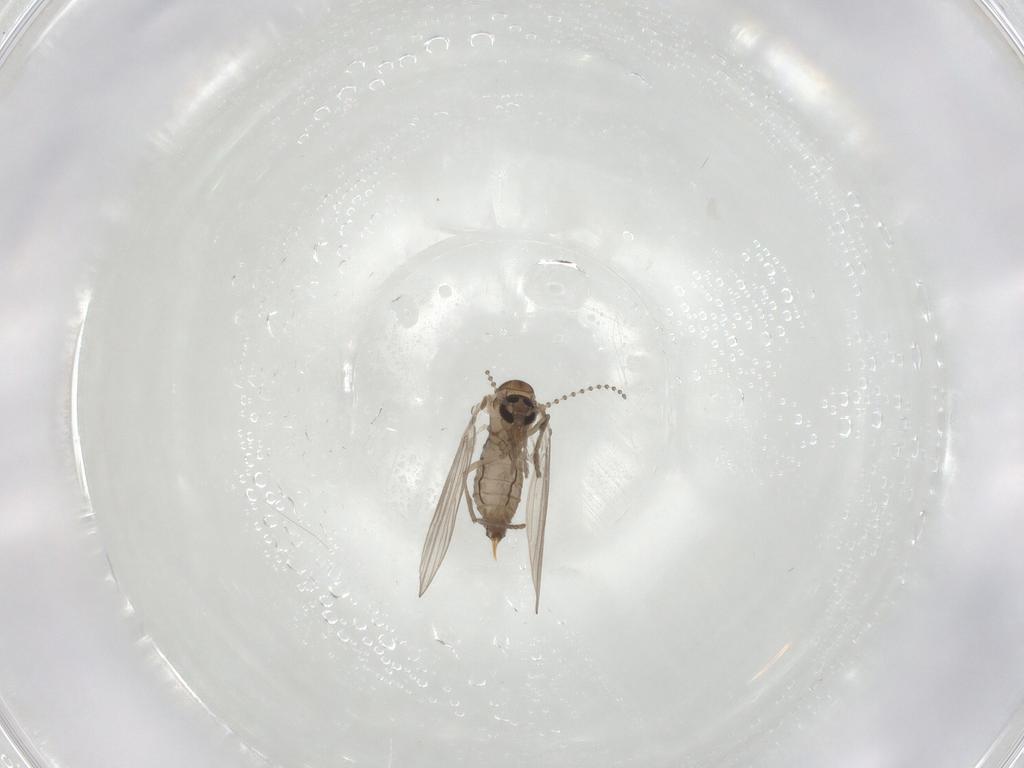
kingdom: Animalia
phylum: Arthropoda
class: Insecta
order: Diptera
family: Psychodidae
